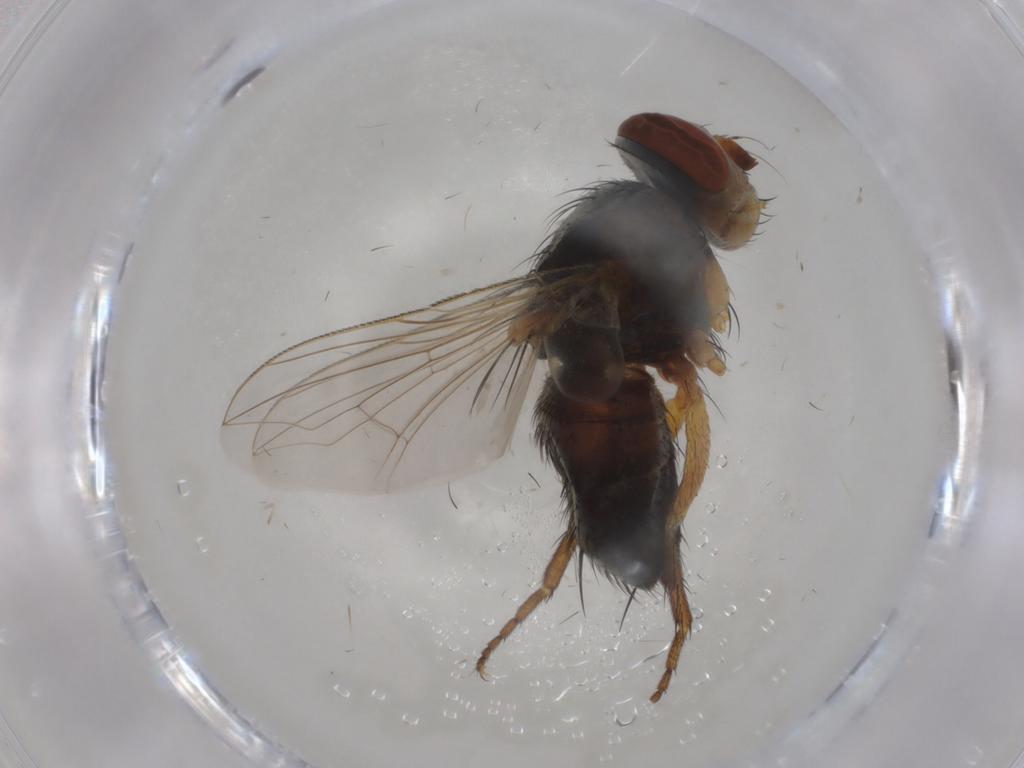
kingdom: Animalia
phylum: Arthropoda
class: Insecta
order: Diptera
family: Tachinidae
